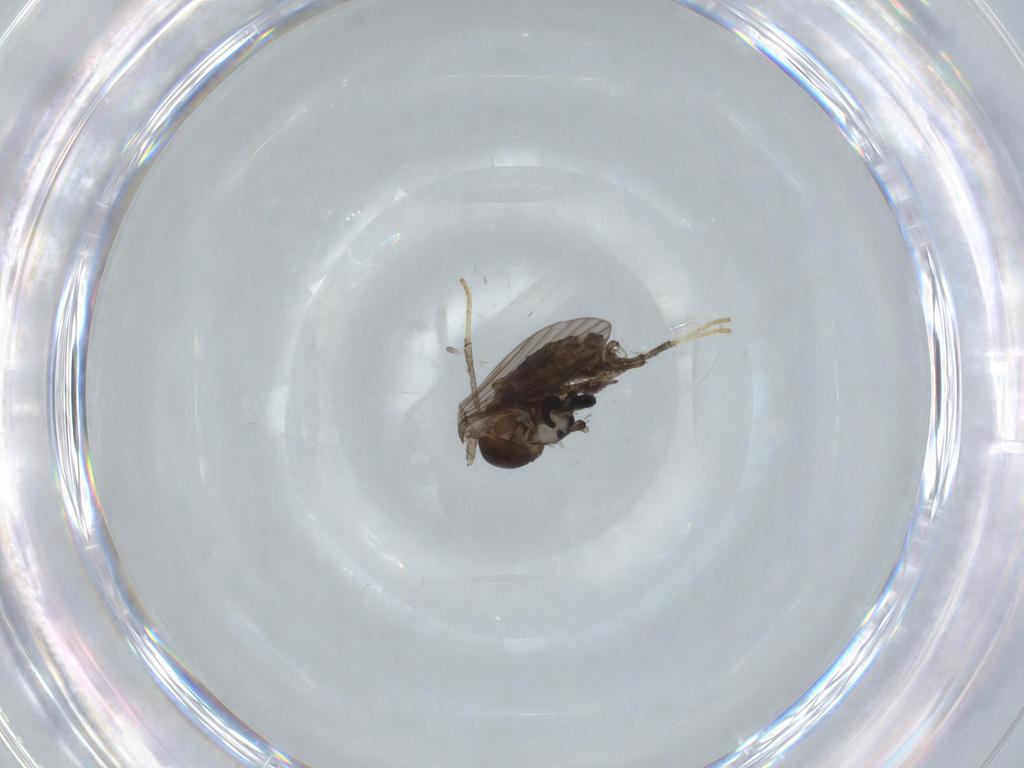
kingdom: Animalia
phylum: Arthropoda
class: Insecta
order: Diptera
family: Psychodidae
